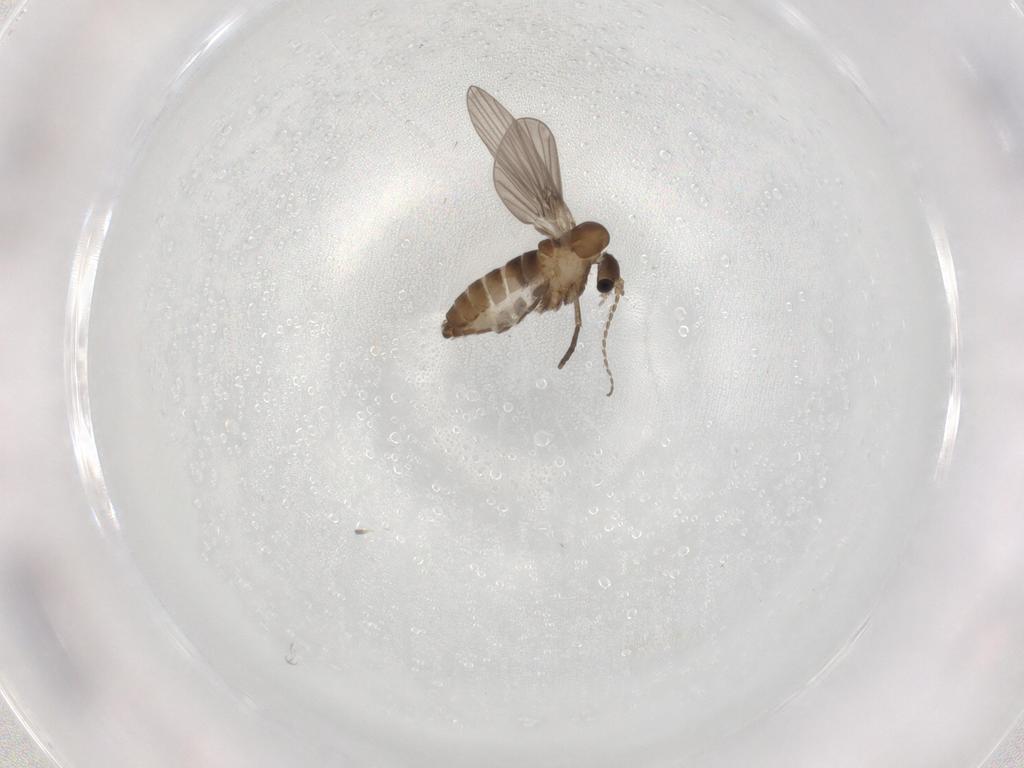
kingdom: Animalia
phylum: Arthropoda
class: Insecta
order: Diptera
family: Psychodidae
